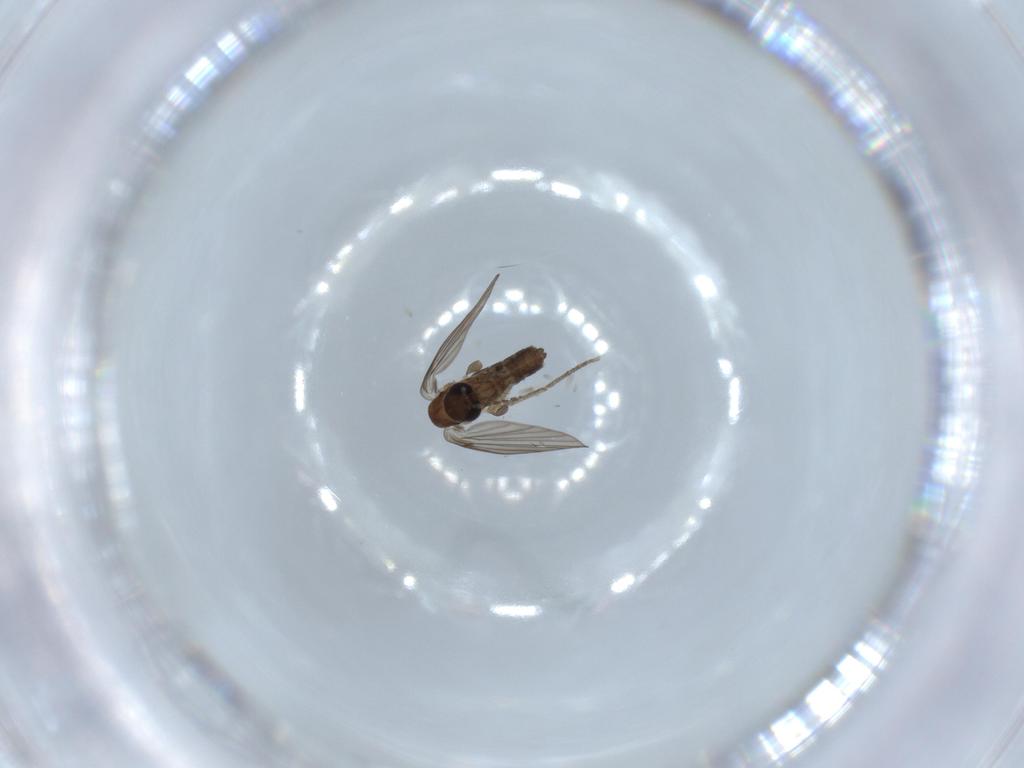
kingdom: Animalia
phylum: Arthropoda
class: Insecta
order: Diptera
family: Psychodidae
